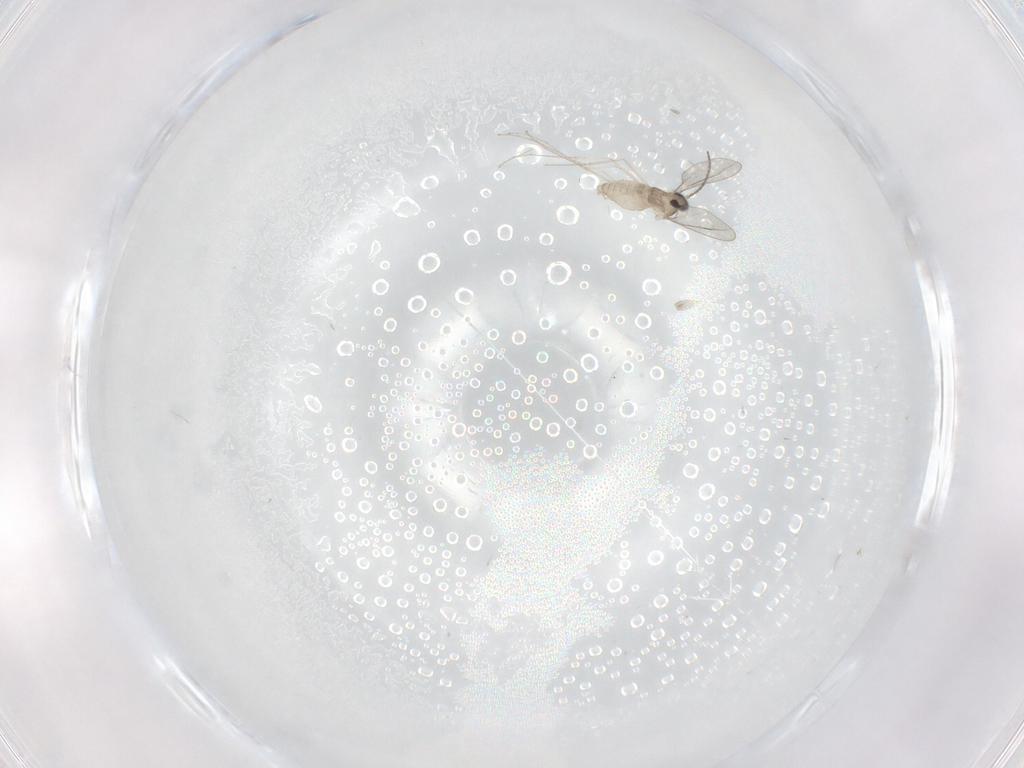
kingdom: Animalia
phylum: Arthropoda
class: Insecta
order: Diptera
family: Cecidomyiidae
